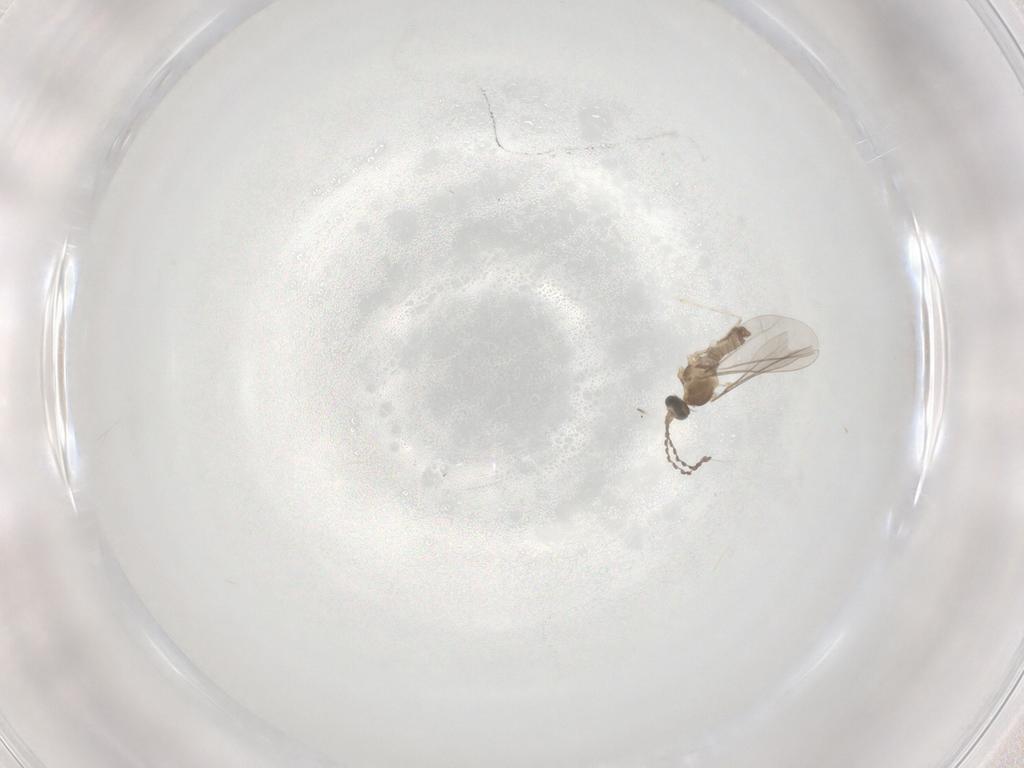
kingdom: Animalia
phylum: Arthropoda
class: Insecta
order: Diptera
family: Cecidomyiidae
